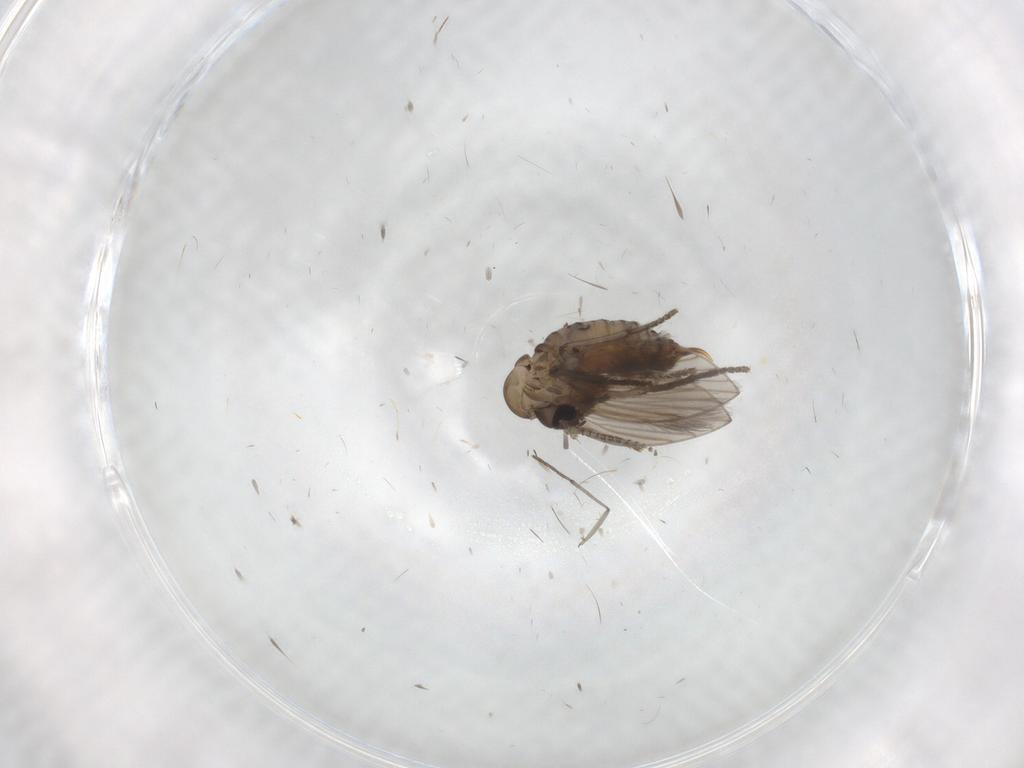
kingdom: Animalia
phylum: Arthropoda
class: Insecta
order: Diptera
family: Psychodidae
